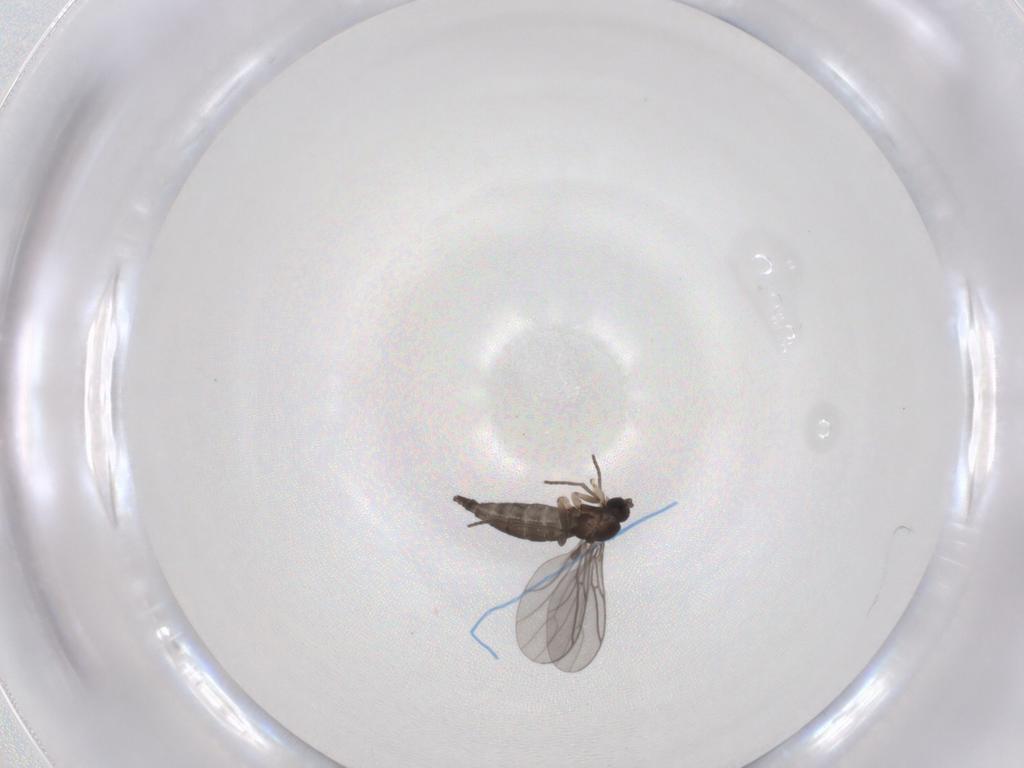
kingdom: Animalia
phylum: Arthropoda
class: Insecta
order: Diptera
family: Sciaridae
